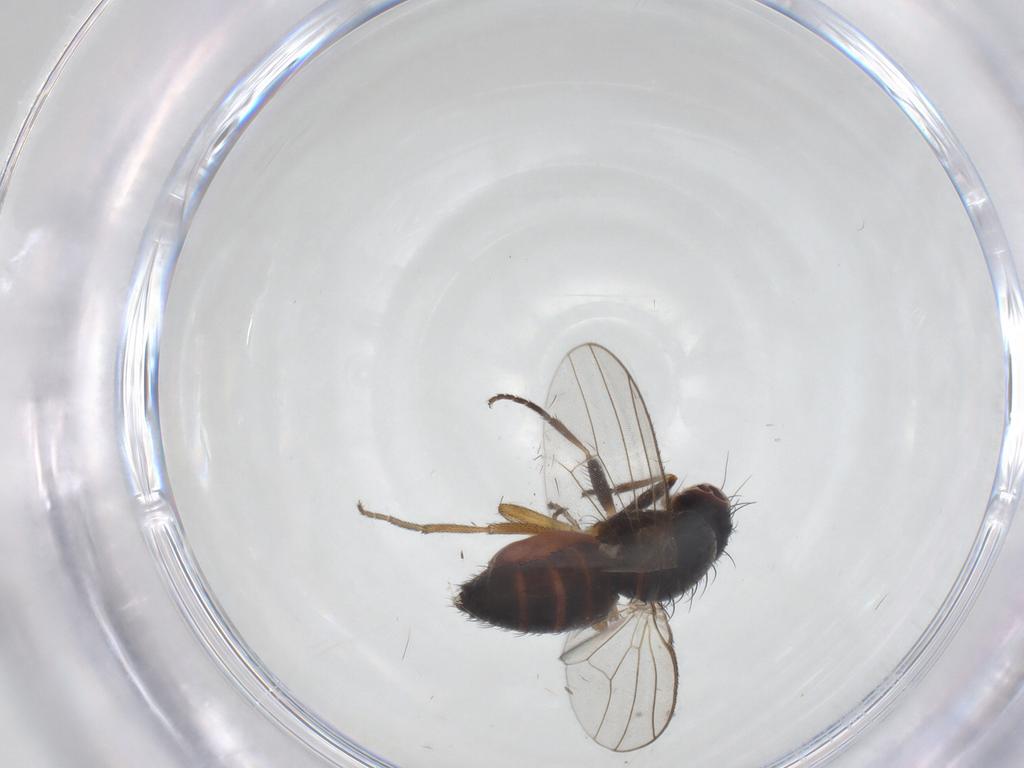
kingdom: Animalia
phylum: Arthropoda
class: Insecta
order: Diptera
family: Heleomyzidae
